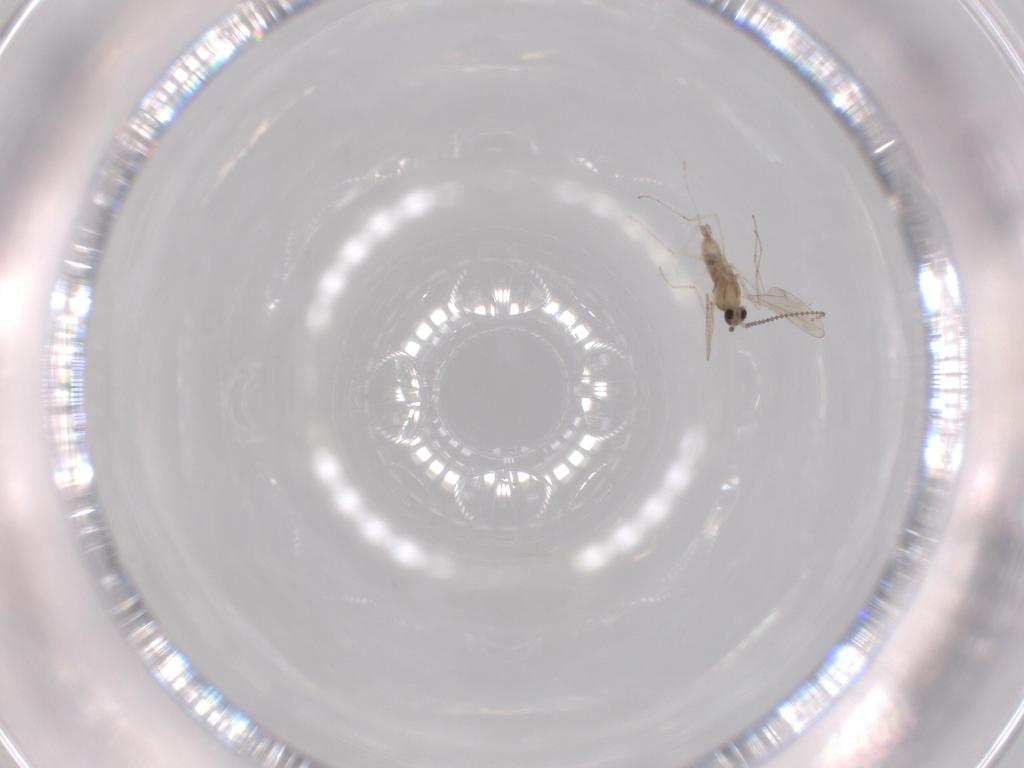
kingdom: Animalia
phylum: Arthropoda
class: Insecta
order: Diptera
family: Cecidomyiidae
